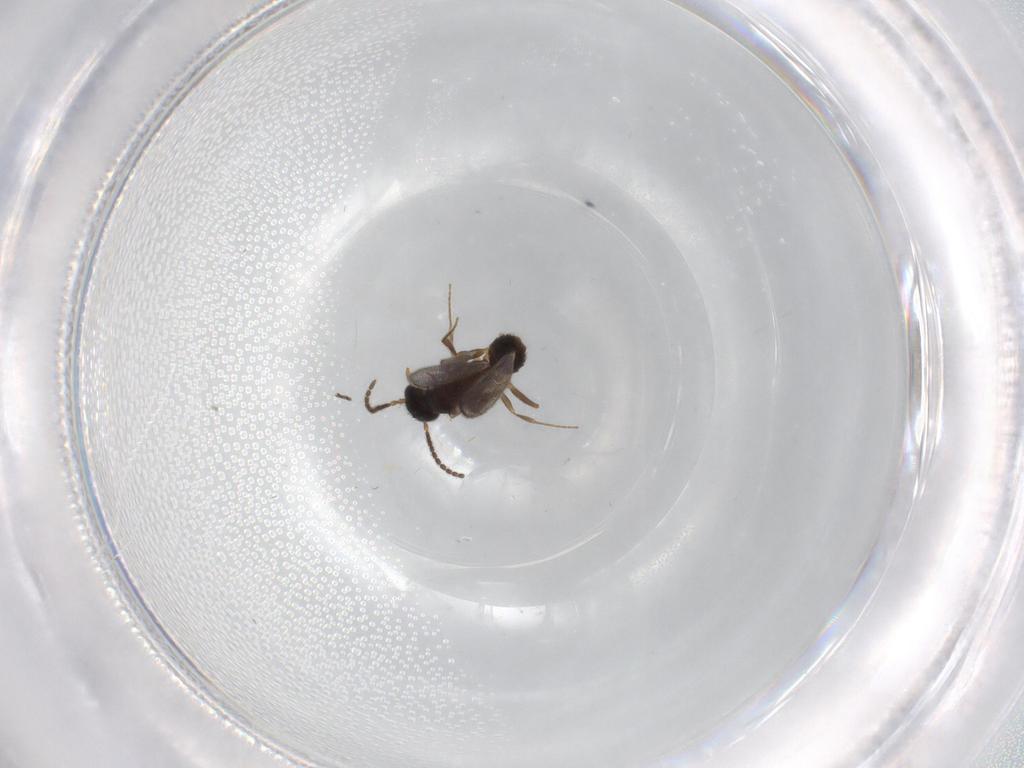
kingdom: Animalia
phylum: Arthropoda
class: Insecta
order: Hymenoptera
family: Bethylidae
